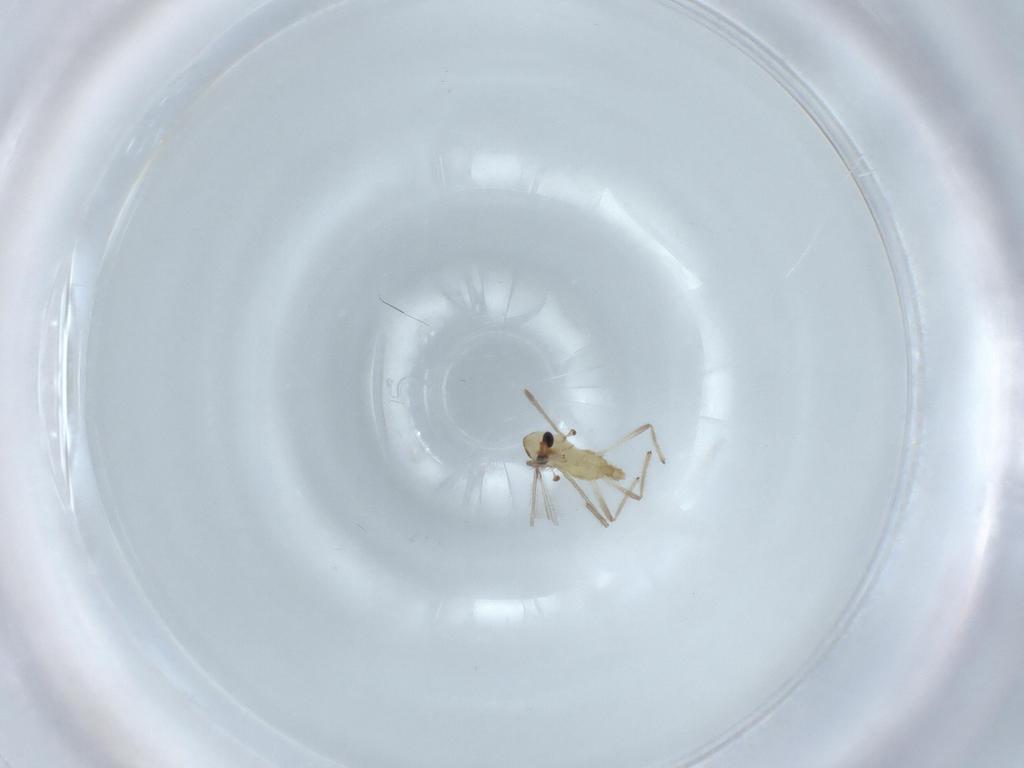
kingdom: Animalia
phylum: Arthropoda
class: Insecta
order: Diptera
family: Chironomidae
